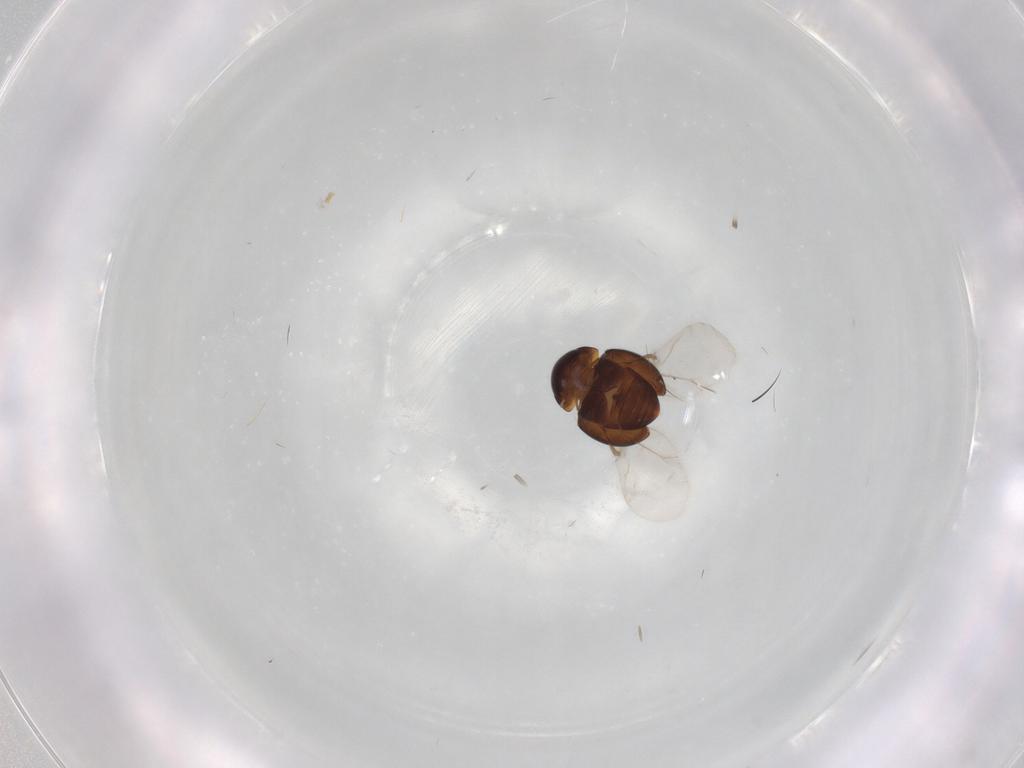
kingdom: Animalia
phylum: Arthropoda
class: Insecta
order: Coleoptera
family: Clambidae
